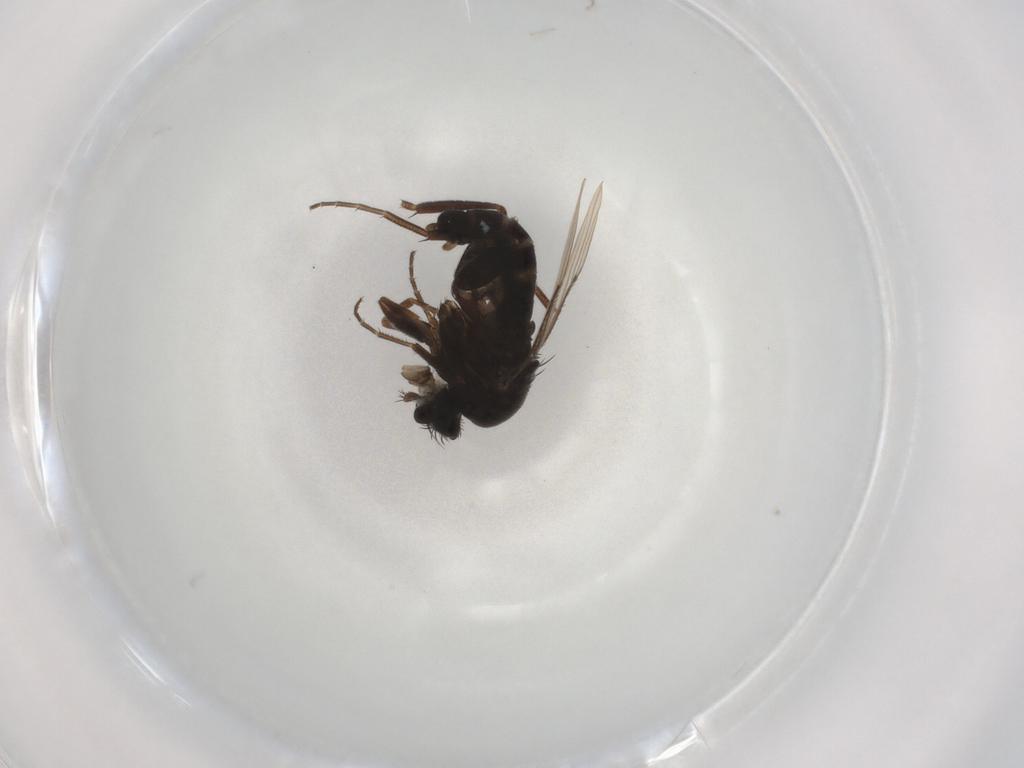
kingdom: Animalia
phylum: Arthropoda
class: Insecta
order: Diptera
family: Phoridae
